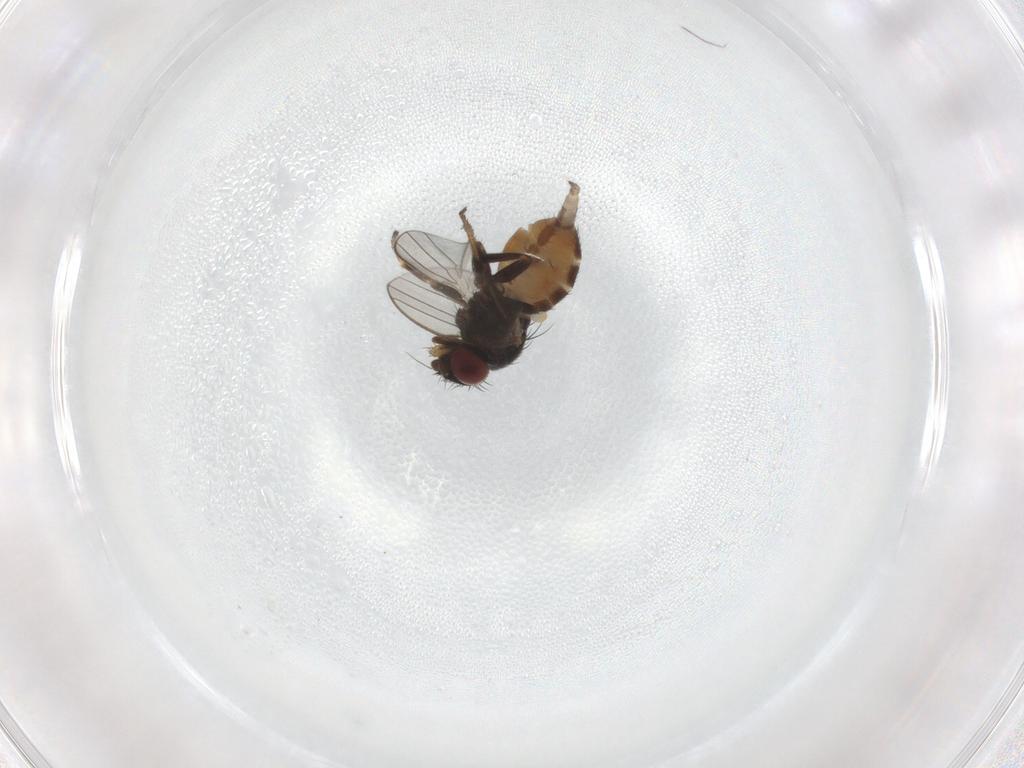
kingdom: Animalia
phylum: Arthropoda
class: Insecta
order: Diptera
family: Milichiidae
